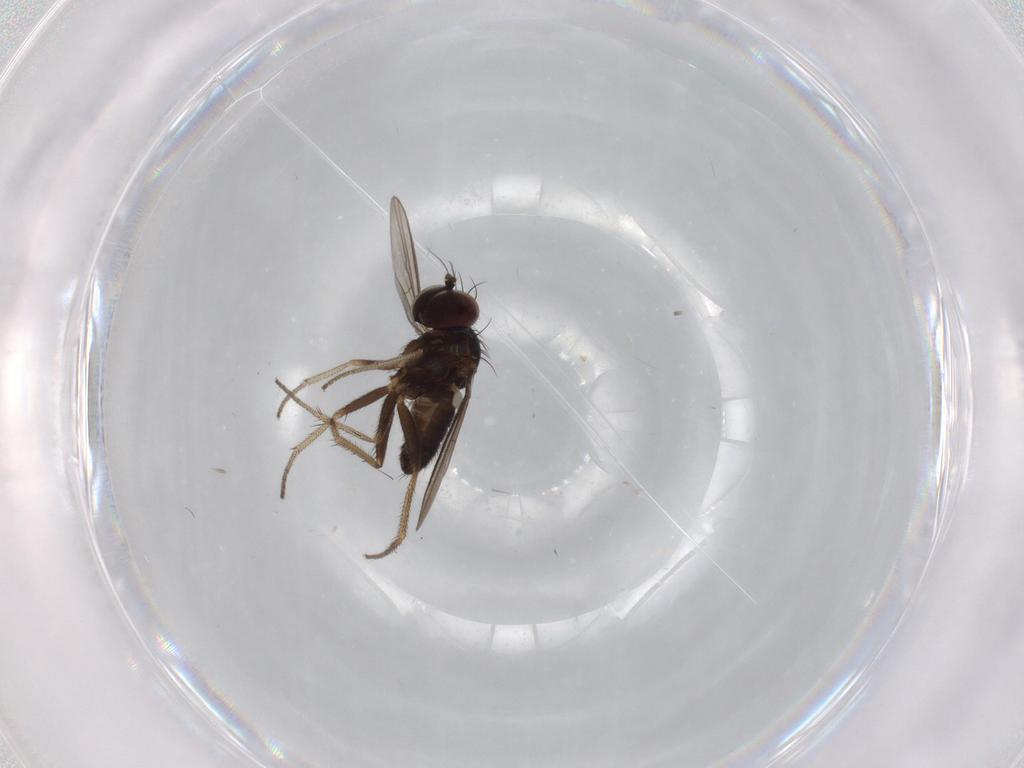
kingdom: Animalia
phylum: Arthropoda
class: Insecta
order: Diptera
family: Dolichopodidae
